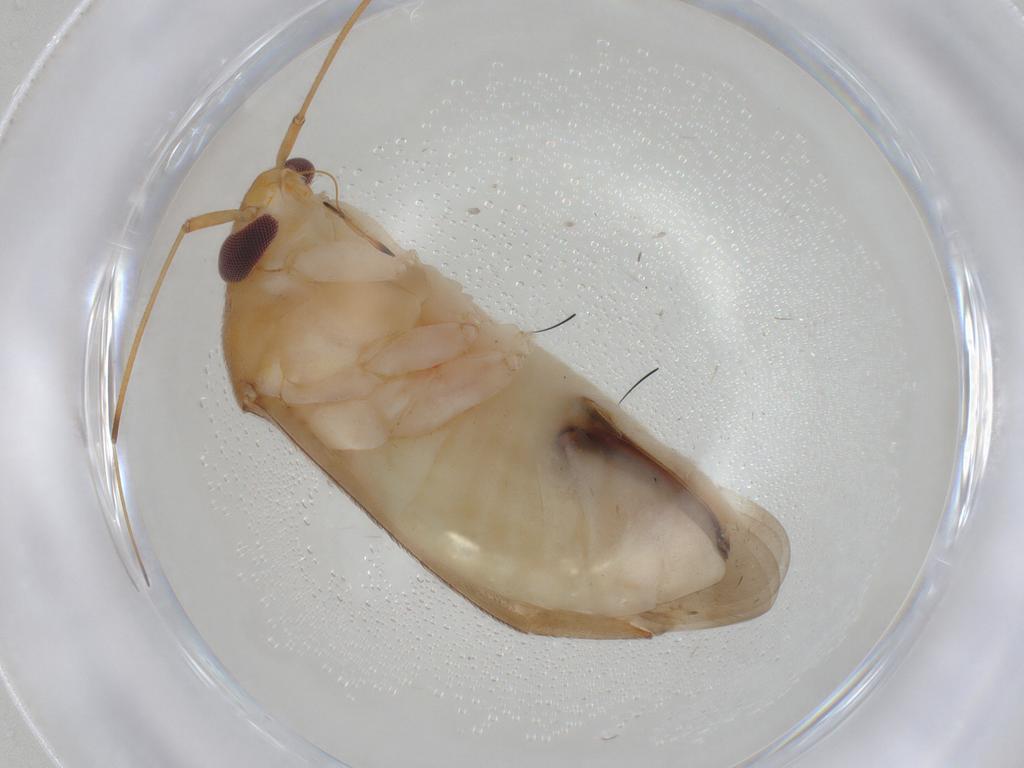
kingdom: Animalia
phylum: Arthropoda
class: Insecta
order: Hemiptera
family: Miridae
